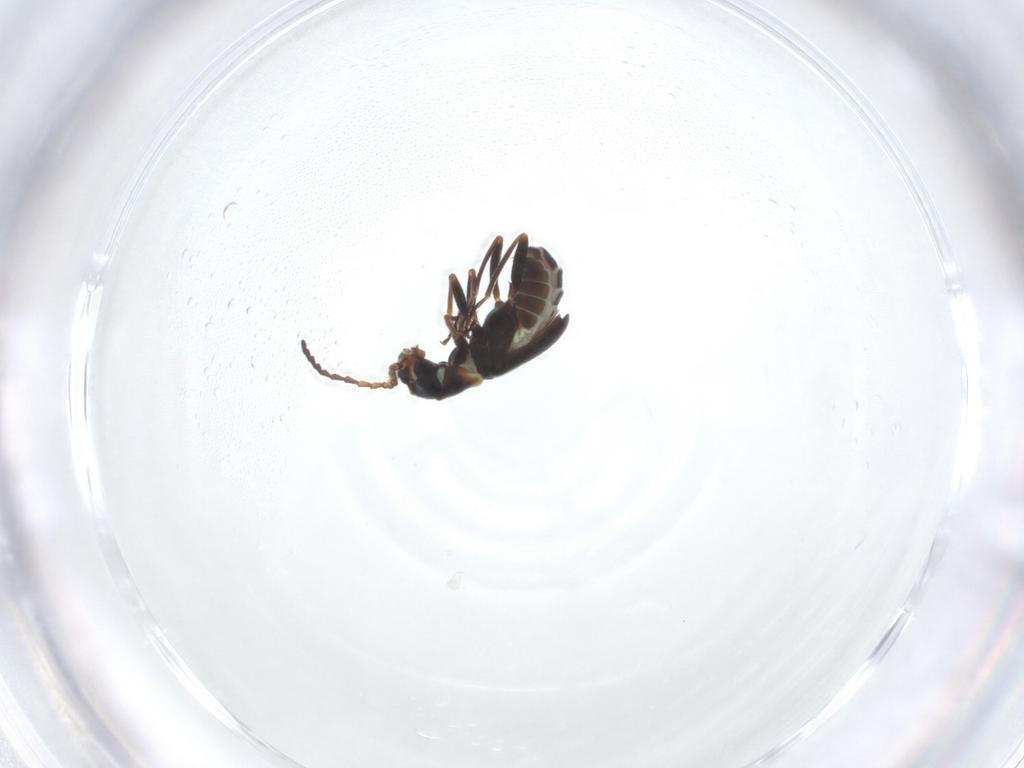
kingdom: Animalia
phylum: Arthropoda
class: Insecta
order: Coleoptera
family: Melyridae
